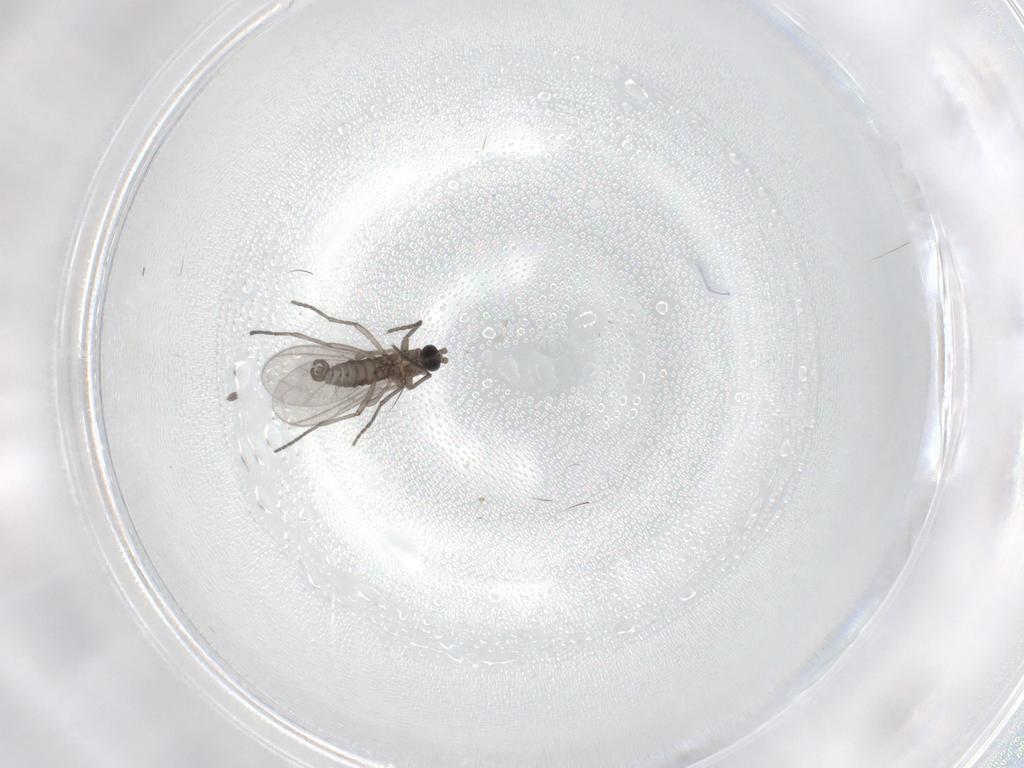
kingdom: Animalia
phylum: Arthropoda
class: Insecta
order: Diptera
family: Sciaridae
